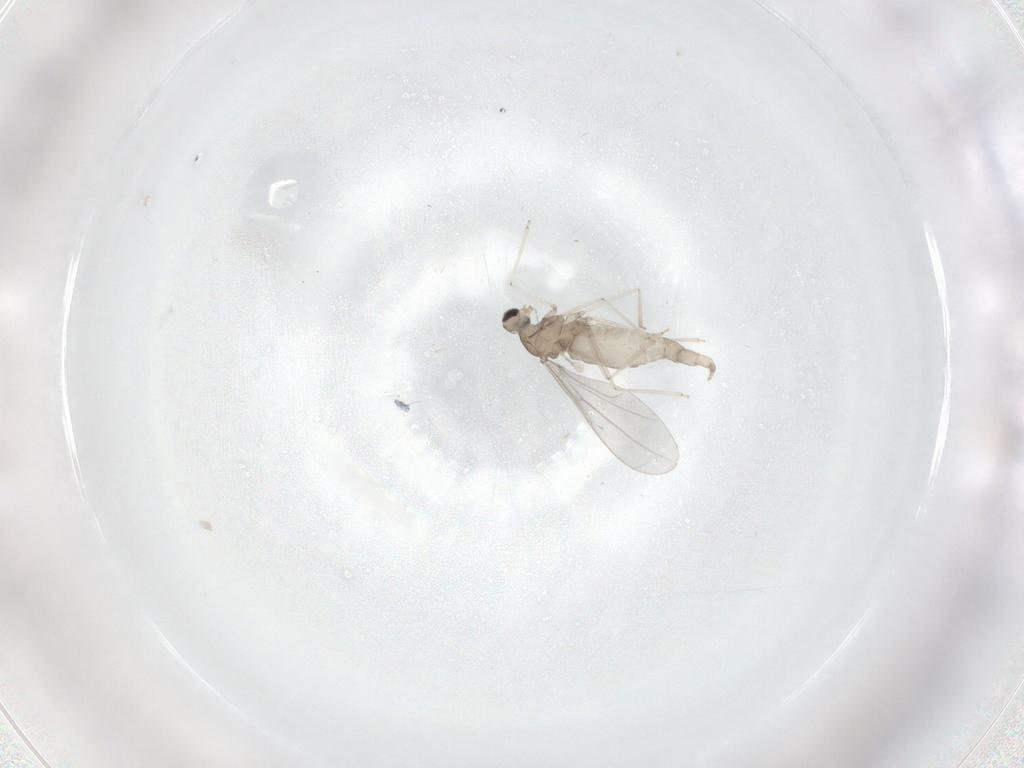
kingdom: Animalia
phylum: Arthropoda
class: Insecta
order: Diptera
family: Cecidomyiidae
